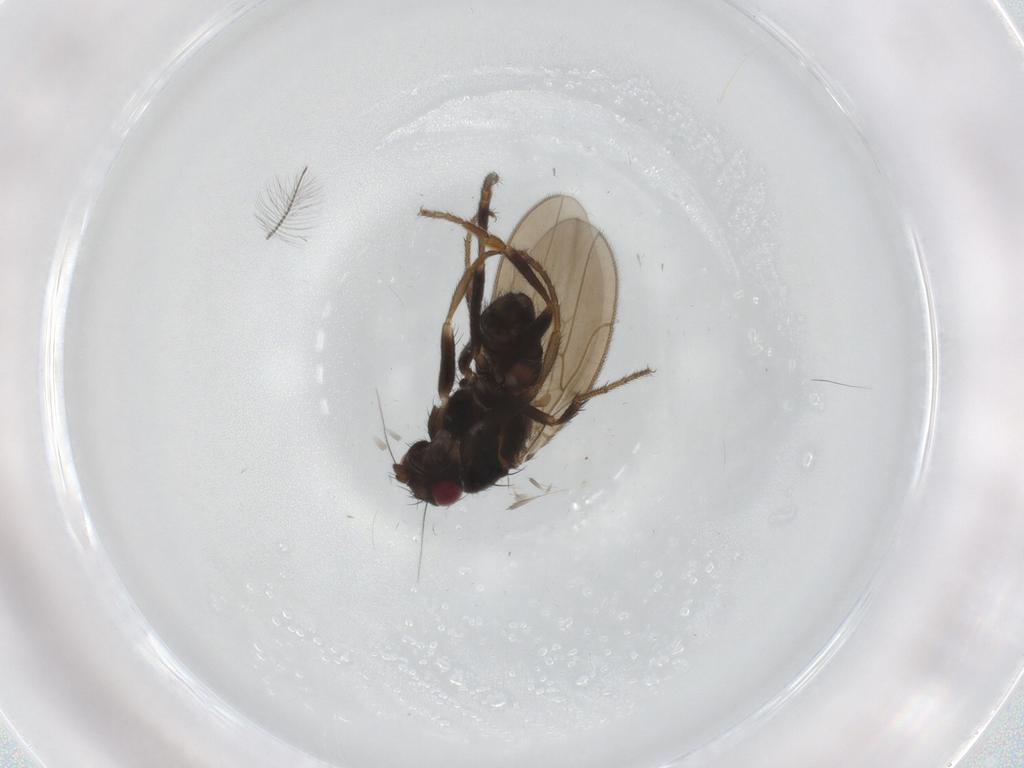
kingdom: Animalia
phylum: Arthropoda
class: Insecta
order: Diptera
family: Sphaeroceridae
